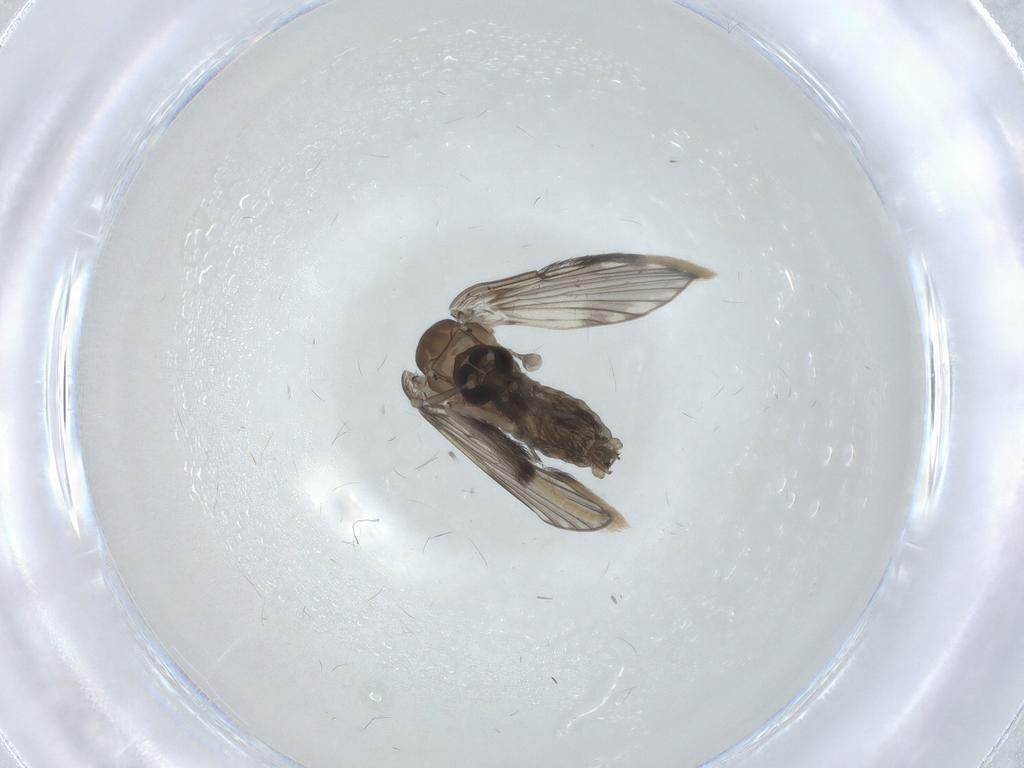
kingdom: Animalia
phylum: Arthropoda
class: Insecta
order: Diptera
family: Psychodidae
